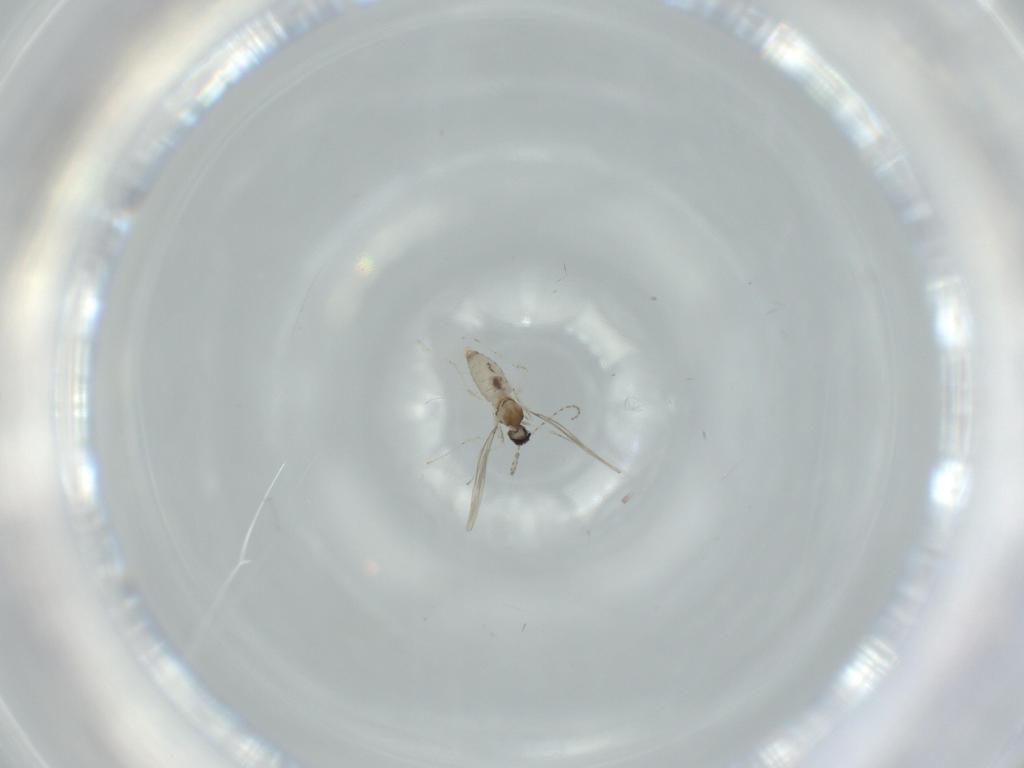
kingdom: Animalia
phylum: Arthropoda
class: Insecta
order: Diptera
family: Cecidomyiidae
